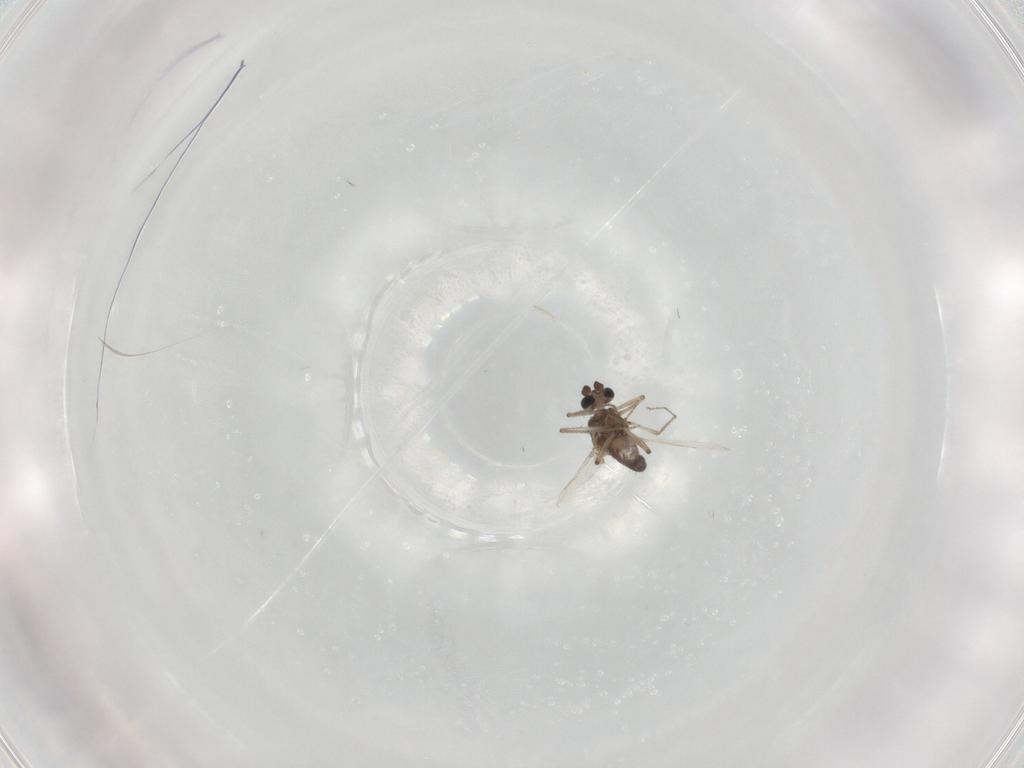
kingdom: Animalia
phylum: Arthropoda
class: Insecta
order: Diptera
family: Ceratopogonidae
